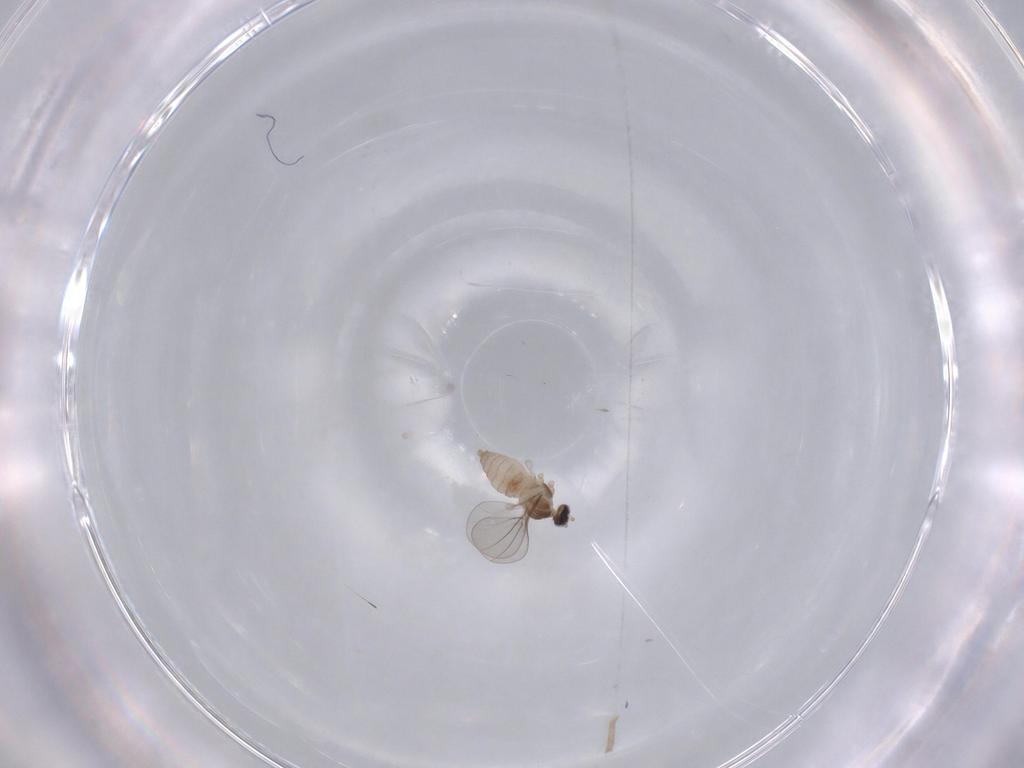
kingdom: Animalia
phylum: Arthropoda
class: Insecta
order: Diptera
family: Cecidomyiidae
